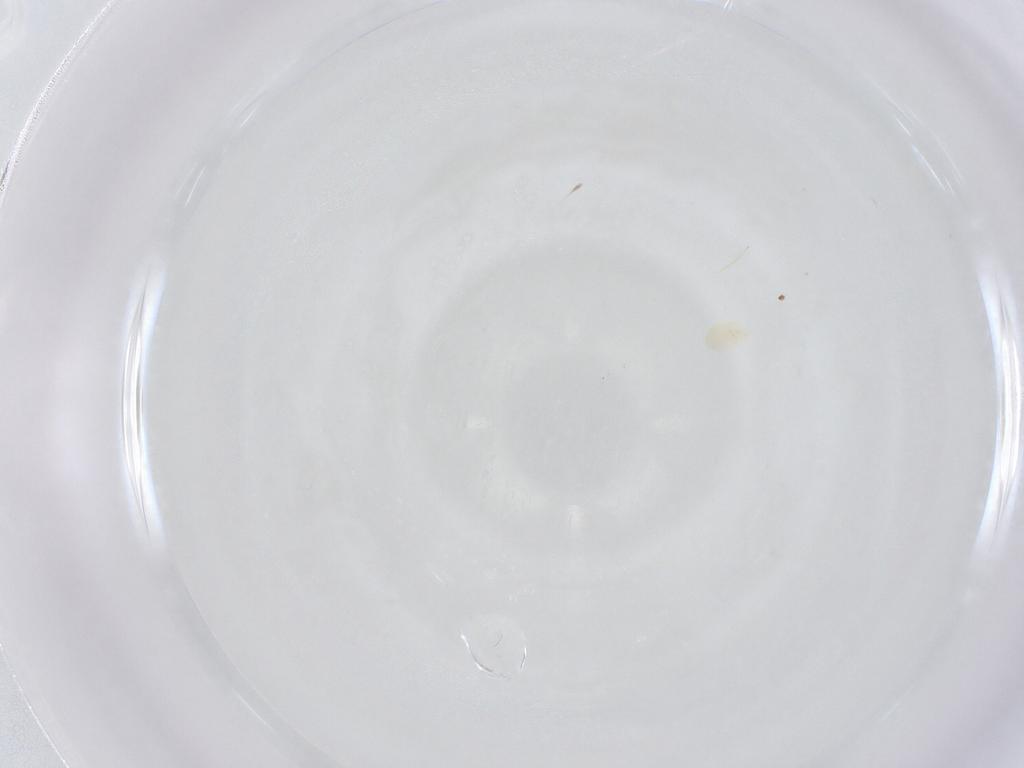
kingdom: Animalia
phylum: Arthropoda
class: Arachnida
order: Trombidiformes
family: Microtrombidiidae
